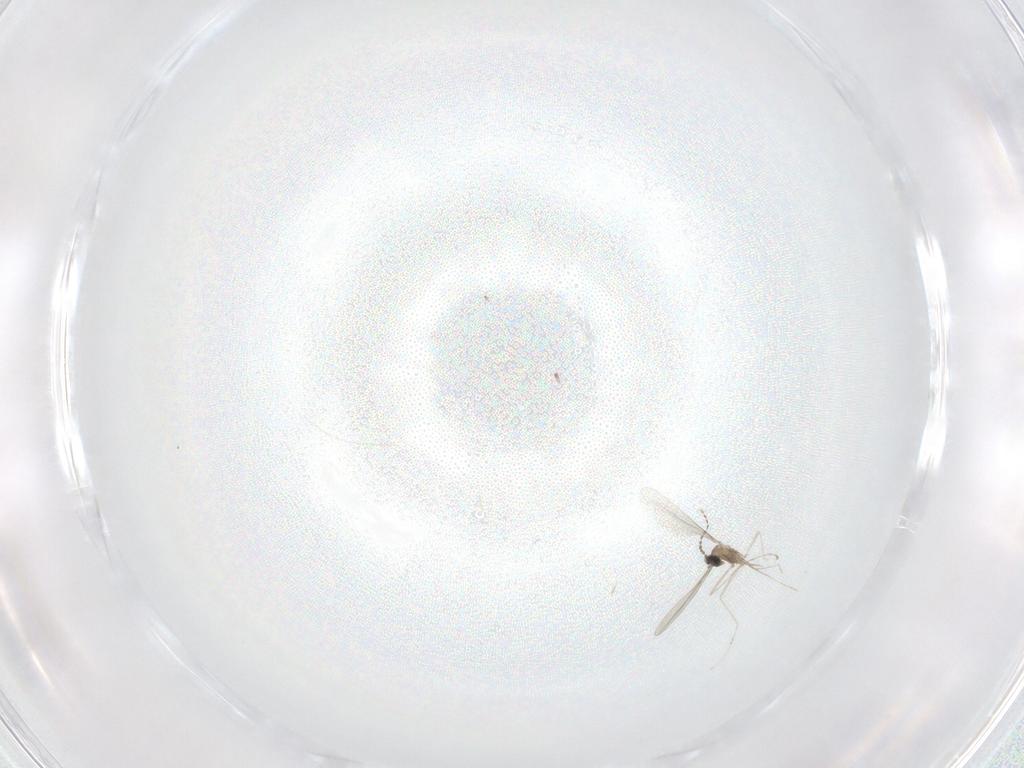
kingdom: Animalia
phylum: Arthropoda
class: Insecta
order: Diptera
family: Cecidomyiidae
